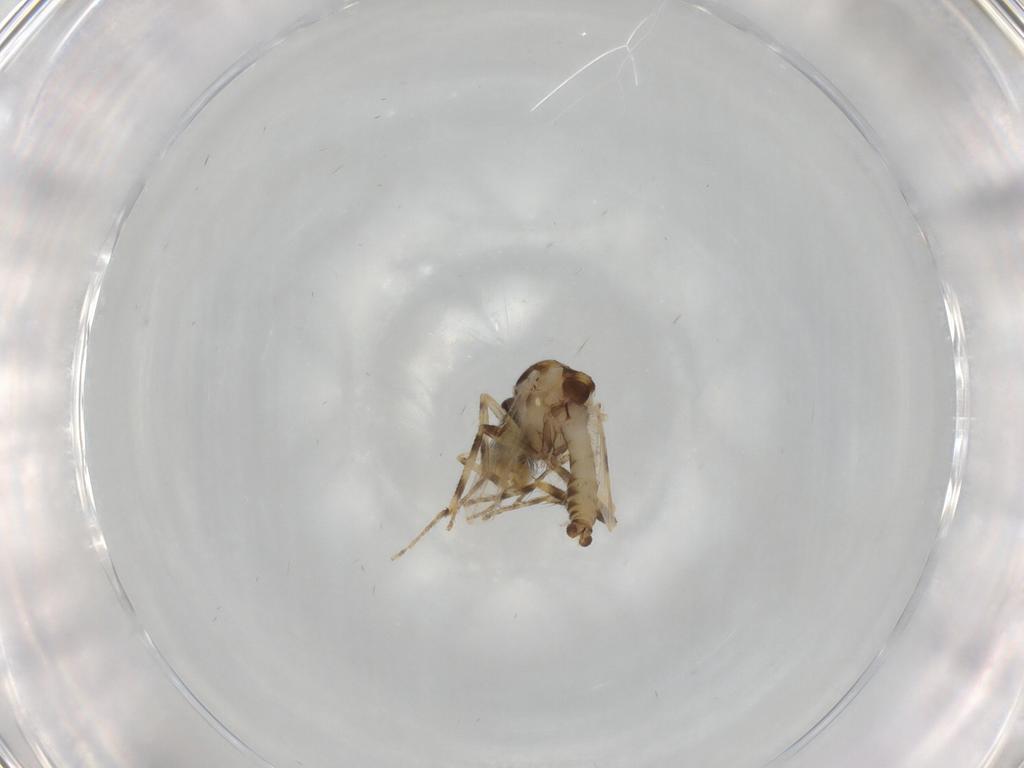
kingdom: Animalia
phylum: Arthropoda
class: Insecta
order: Diptera
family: Ceratopogonidae
